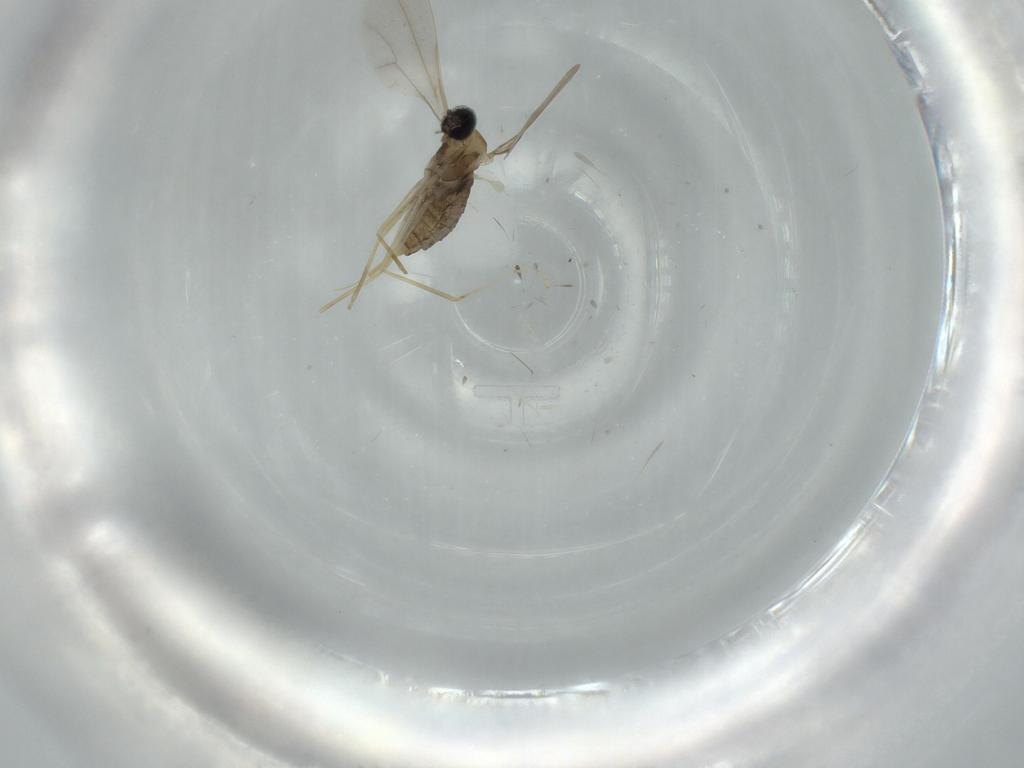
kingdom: Animalia
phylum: Arthropoda
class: Insecta
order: Diptera
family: Cecidomyiidae
